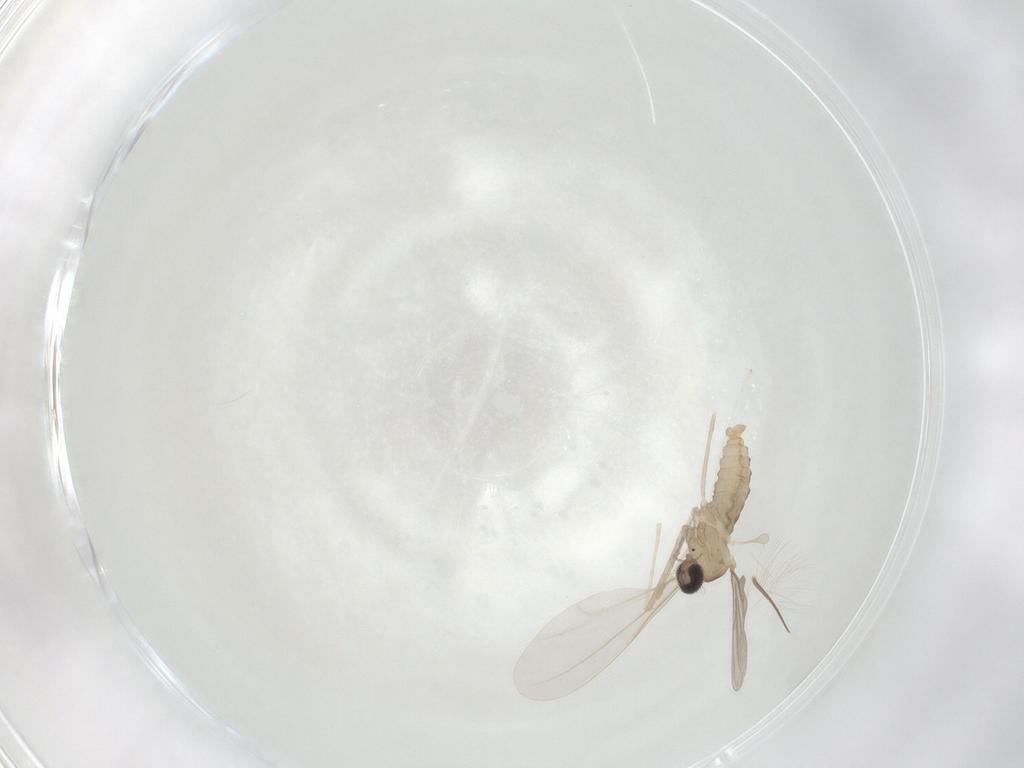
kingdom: Animalia
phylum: Arthropoda
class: Insecta
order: Diptera
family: Cecidomyiidae
